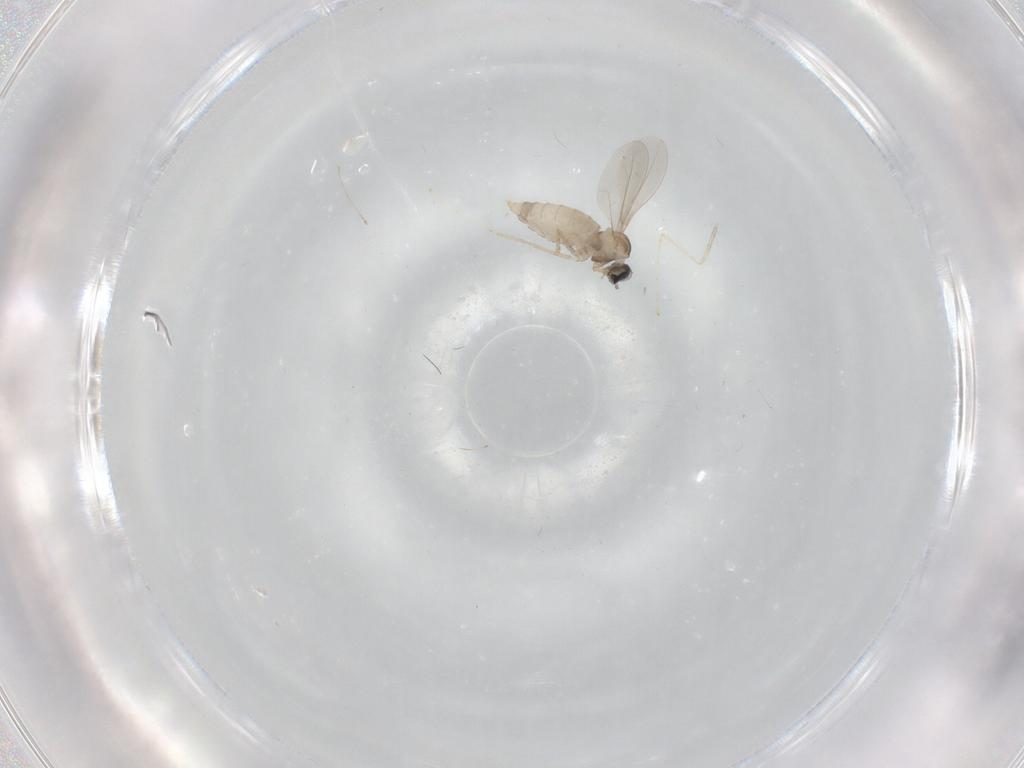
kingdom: Animalia
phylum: Arthropoda
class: Insecta
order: Diptera
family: Cecidomyiidae
